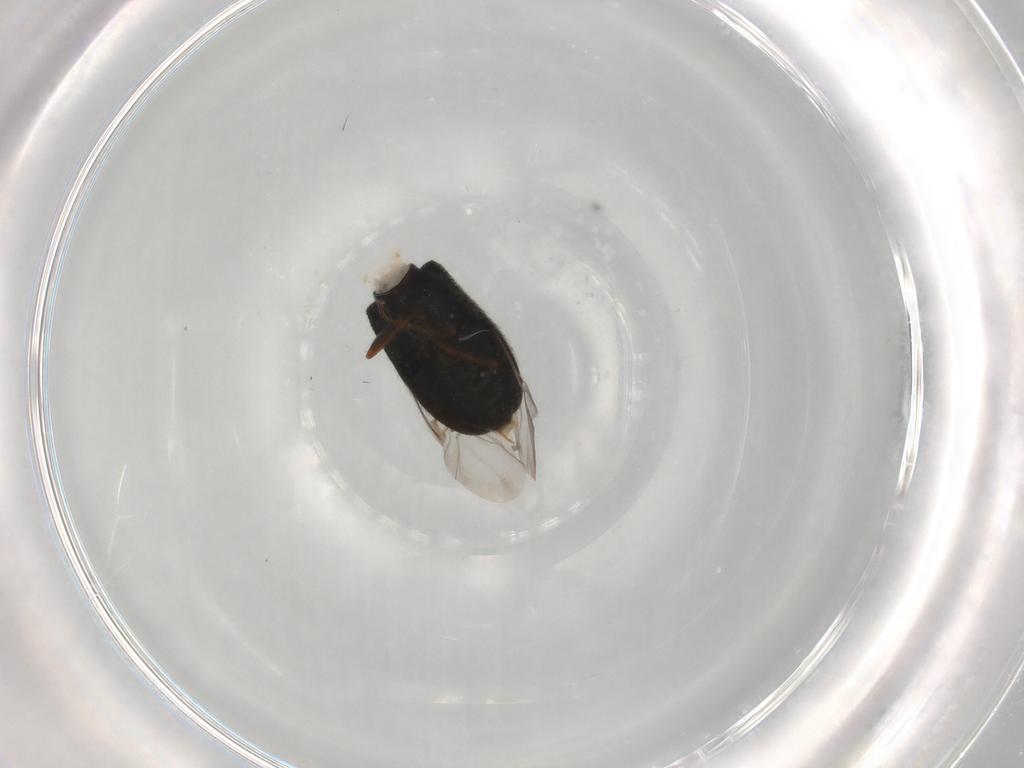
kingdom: Animalia
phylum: Arthropoda
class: Insecta
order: Coleoptera
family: Melyridae
